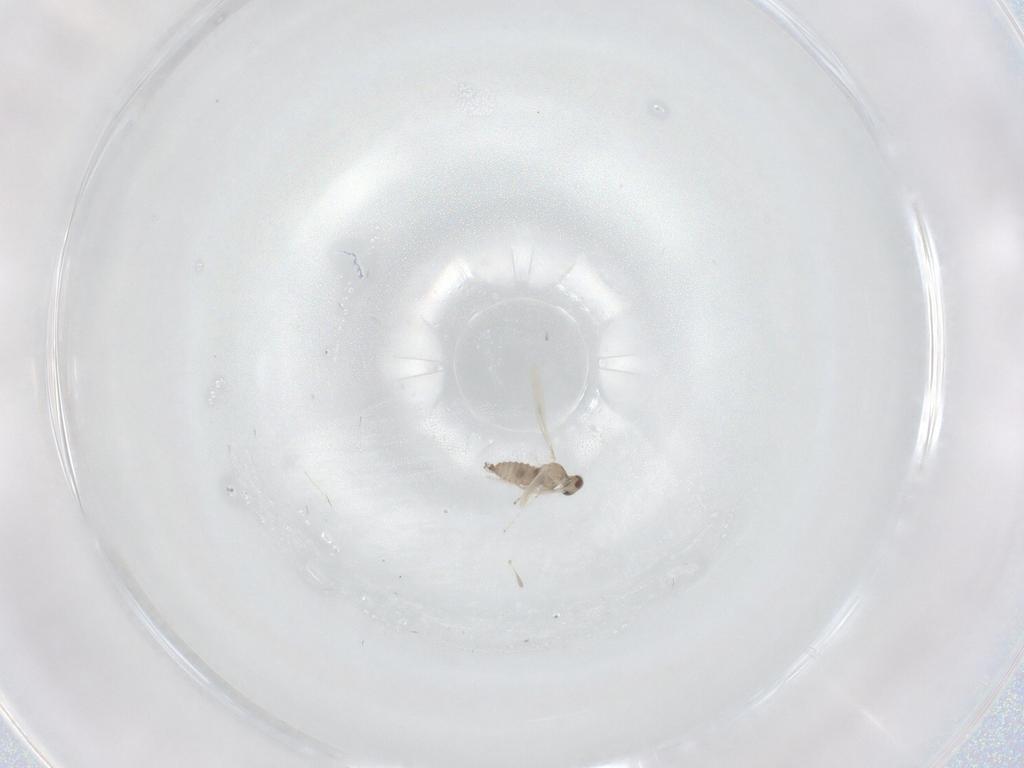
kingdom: Animalia
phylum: Arthropoda
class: Insecta
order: Diptera
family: Cecidomyiidae
